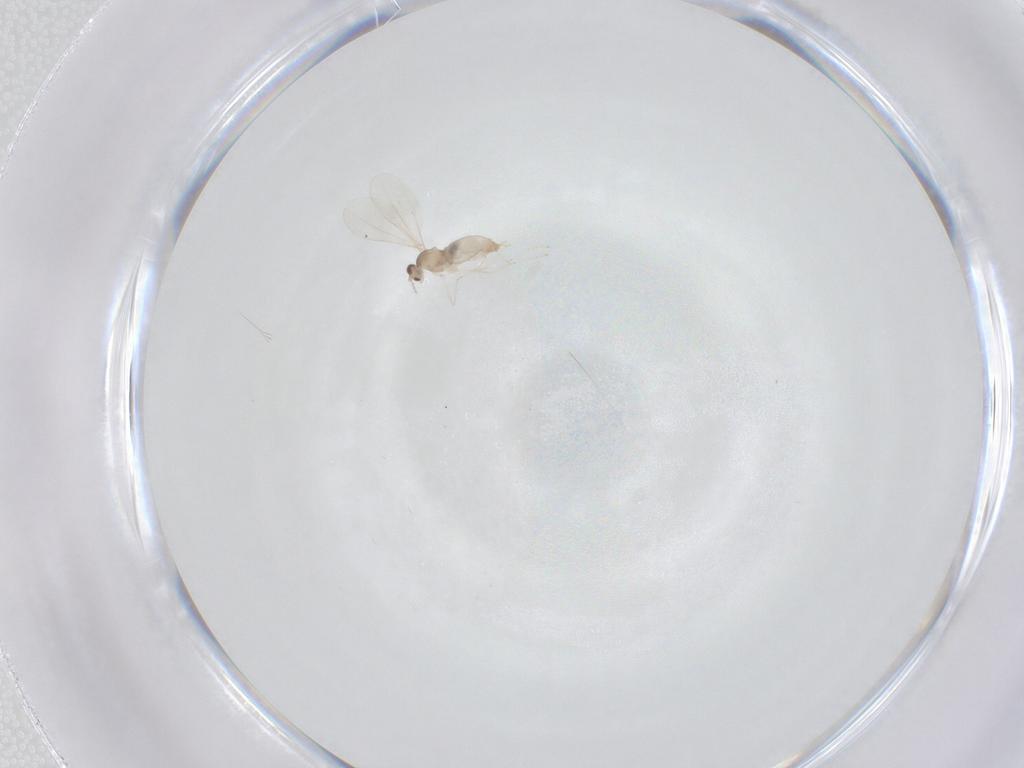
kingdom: Animalia
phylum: Arthropoda
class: Insecta
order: Diptera
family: Cecidomyiidae
